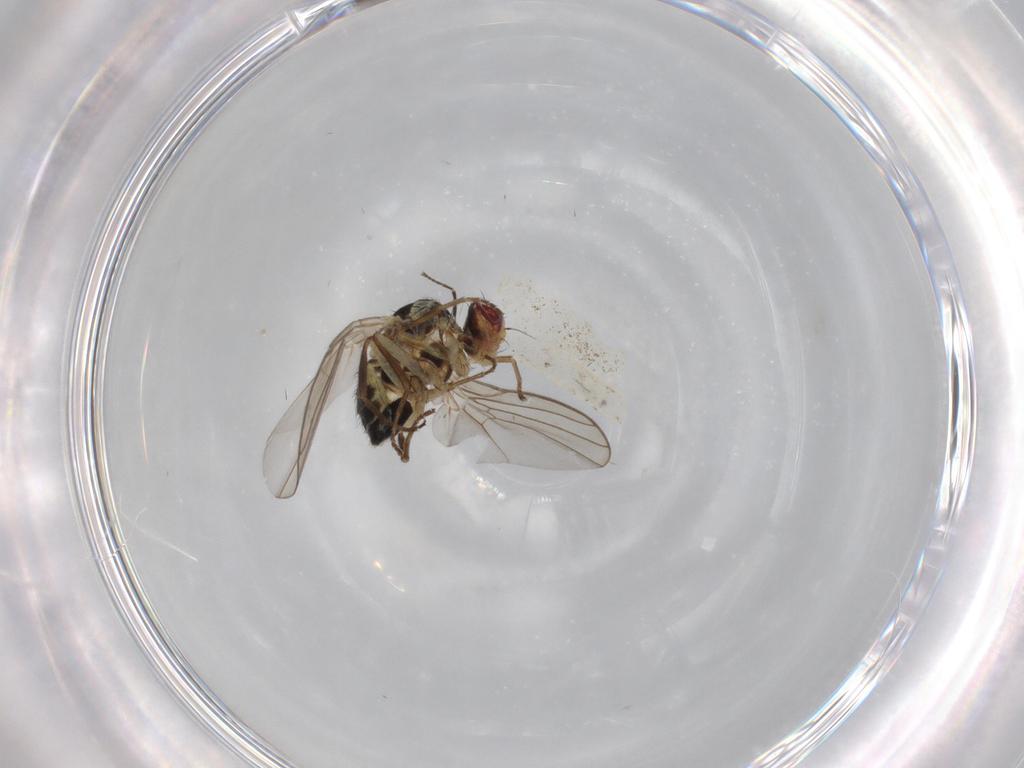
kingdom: Animalia
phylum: Arthropoda
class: Insecta
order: Diptera
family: Agromyzidae
